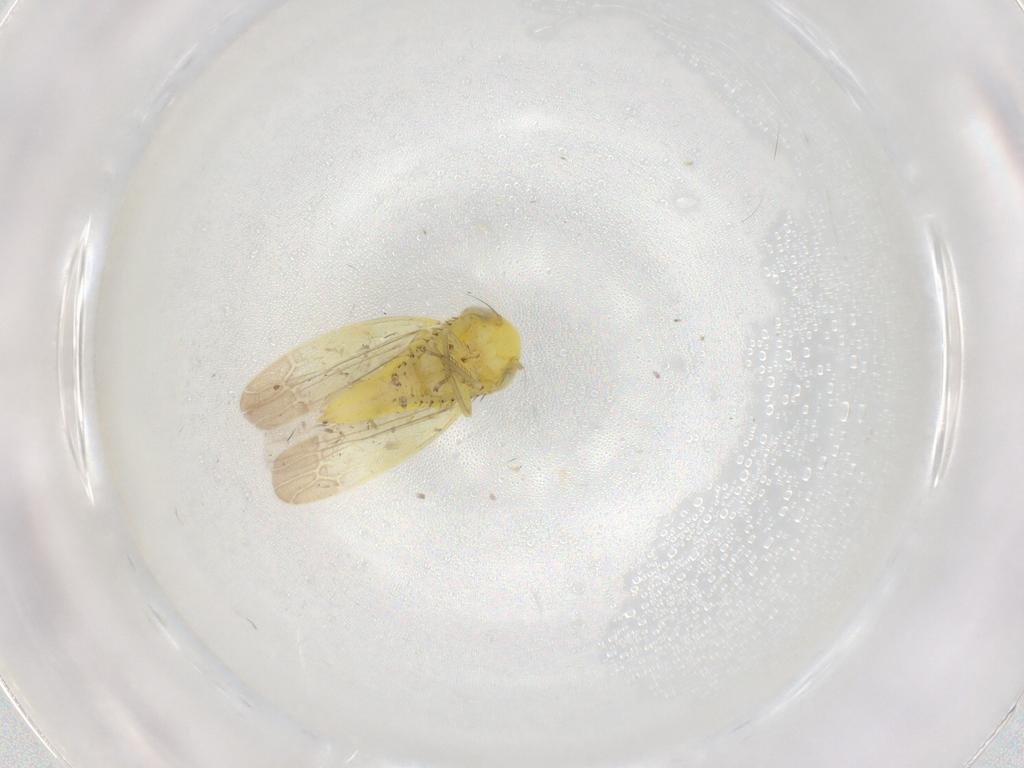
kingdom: Animalia
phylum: Arthropoda
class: Insecta
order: Hemiptera
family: Cicadellidae
